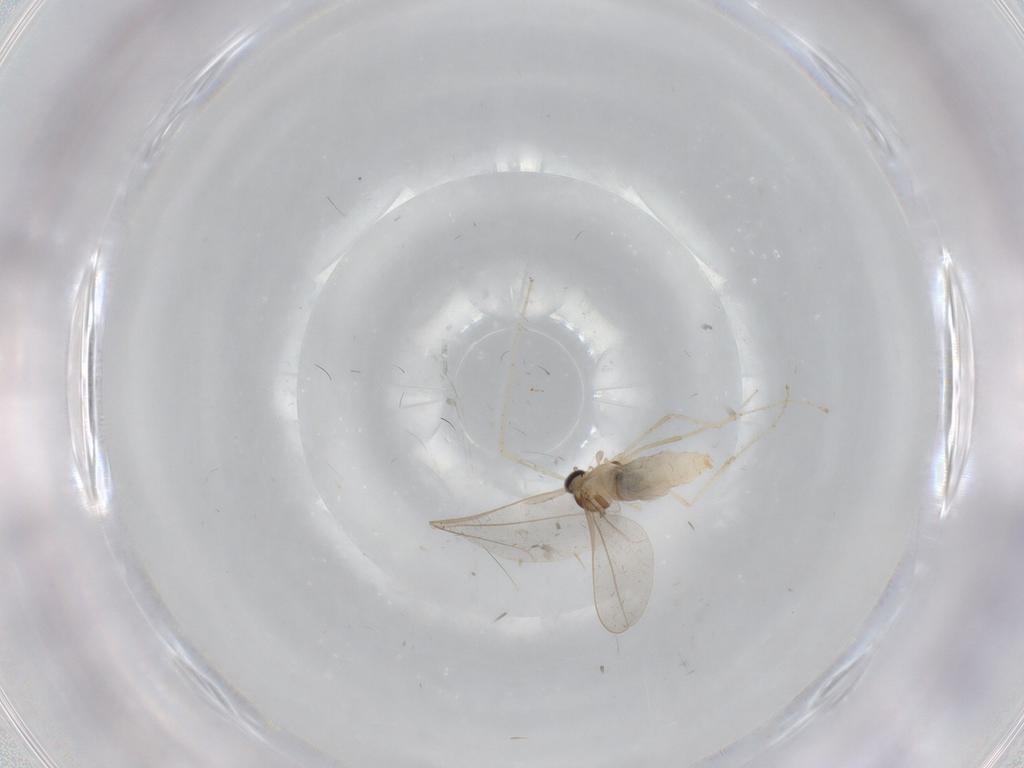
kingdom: Animalia
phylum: Arthropoda
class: Insecta
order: Diptera
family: Cecidomyiidae
